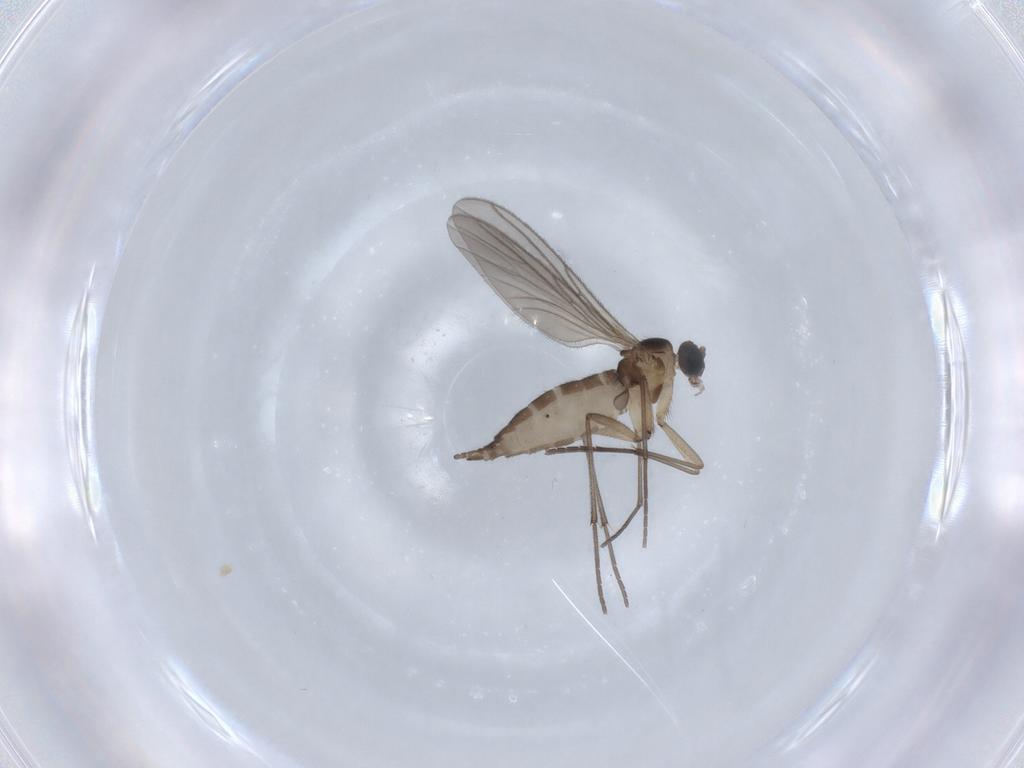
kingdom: Animalia
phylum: Arthropoda
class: Insecta
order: Diptera
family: Sciaridae
